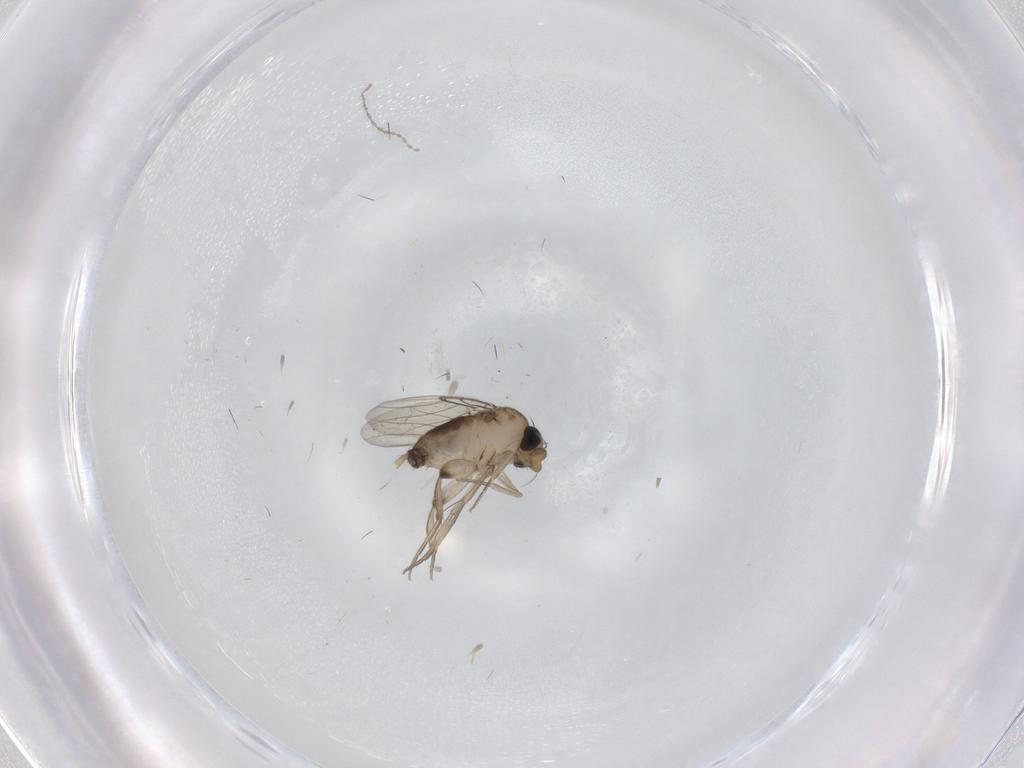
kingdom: Animalia
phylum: Arthropoda
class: Insecta
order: Diptera
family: Phoridae
